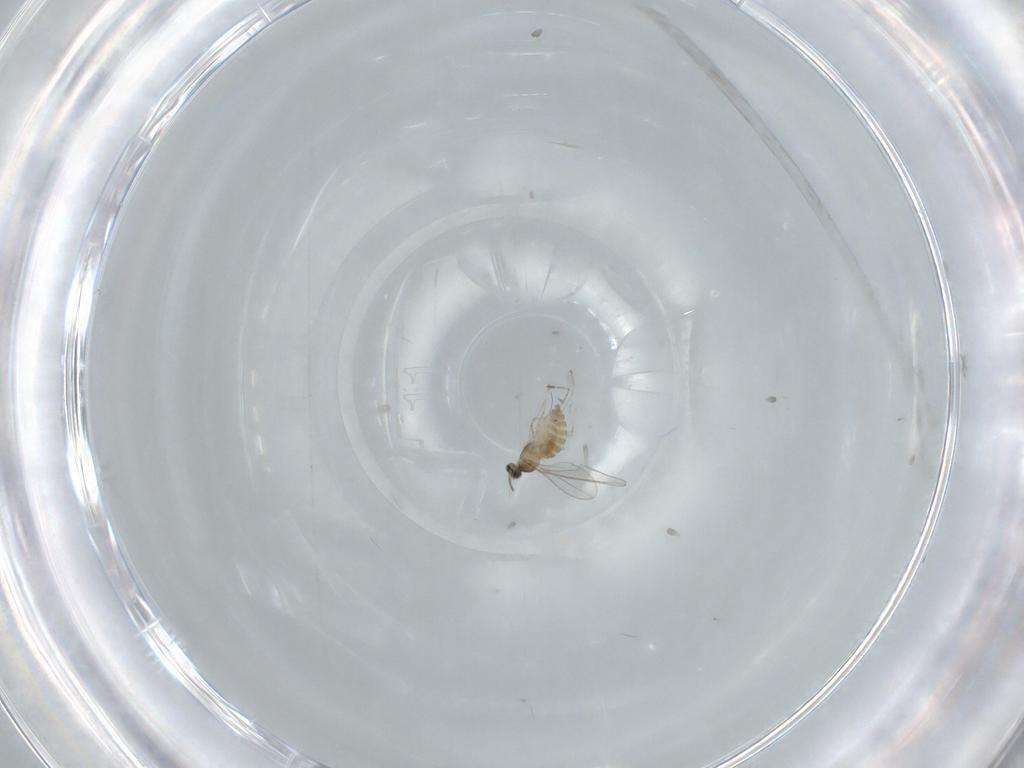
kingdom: Animalia
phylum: Arthropoda
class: Insecta
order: Diptera
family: Cecidomyiidae
